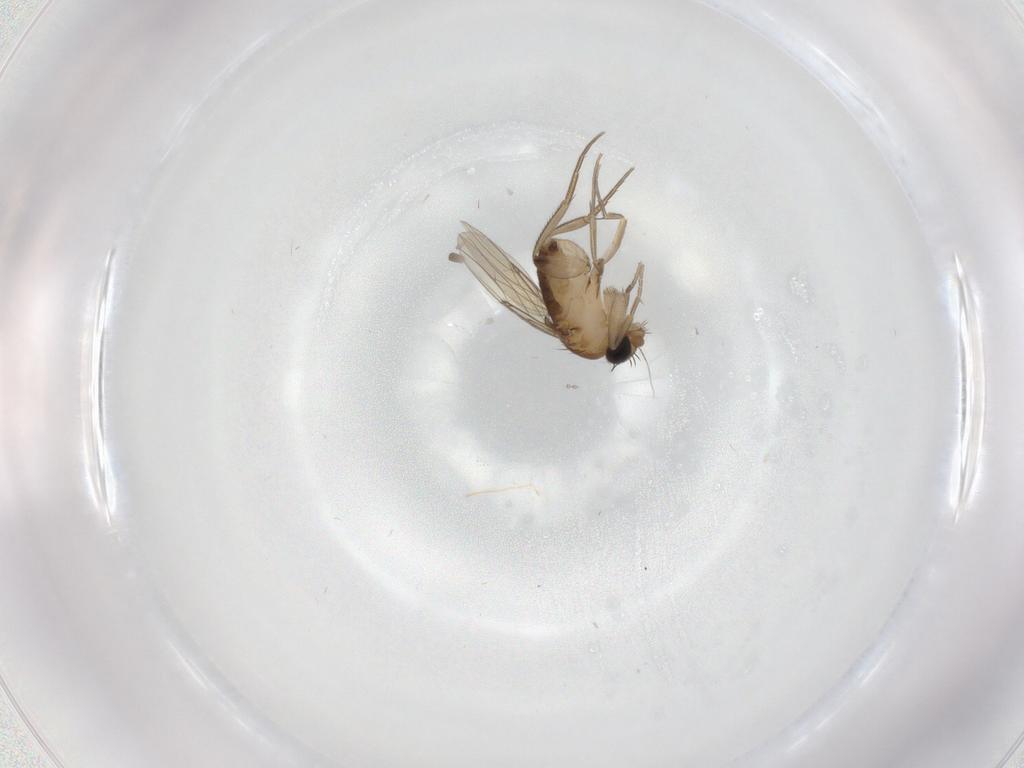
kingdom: Animalia
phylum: Arthropoda
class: Insecta
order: Diptera
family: Phoridae
